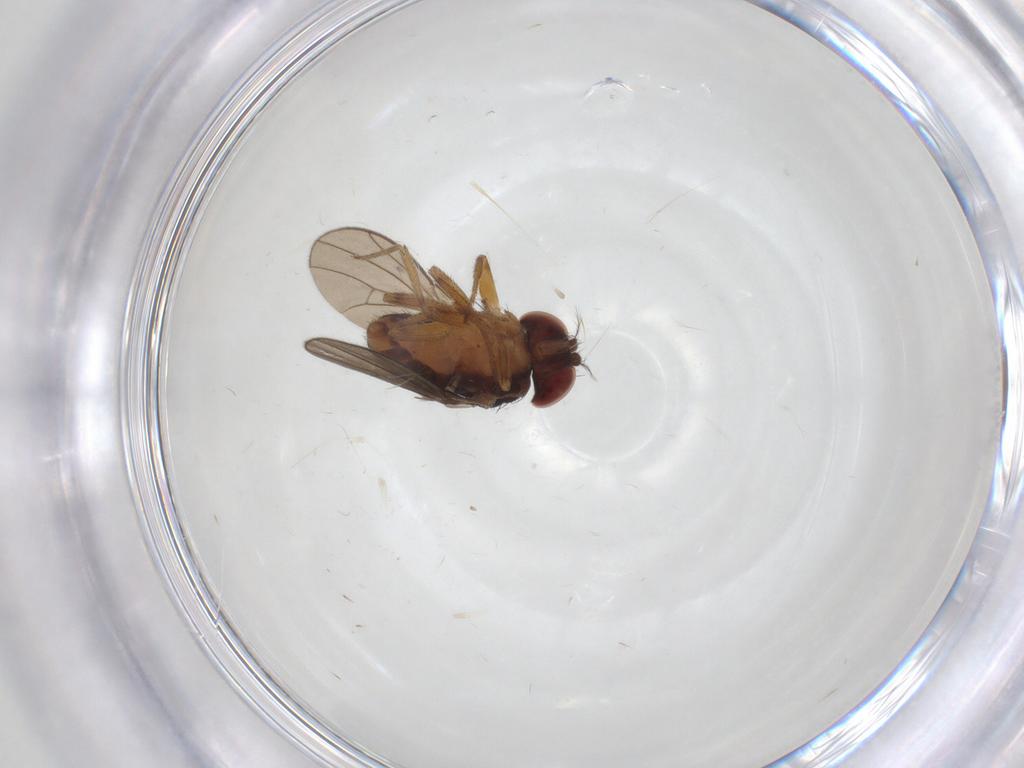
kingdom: Animalia
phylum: Arthropoda
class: Insecta
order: Diptera
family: Drosophilidae
